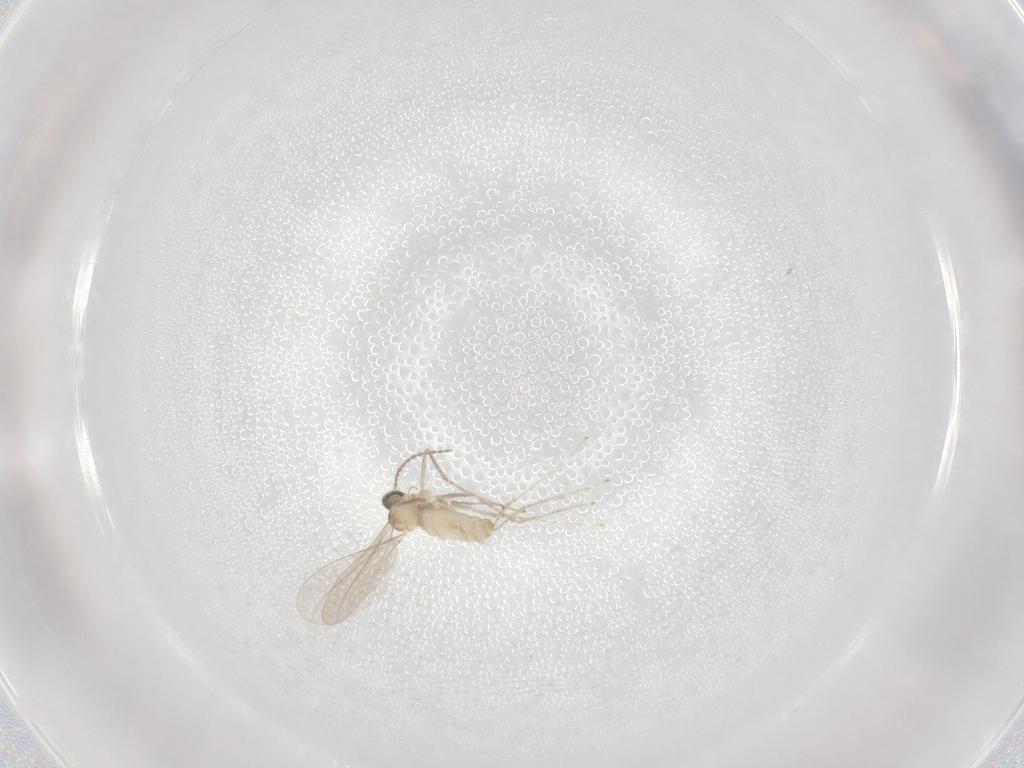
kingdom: Animalia
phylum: Arthropoda
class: Insecta
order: Diptera
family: Cecidomyiidae
